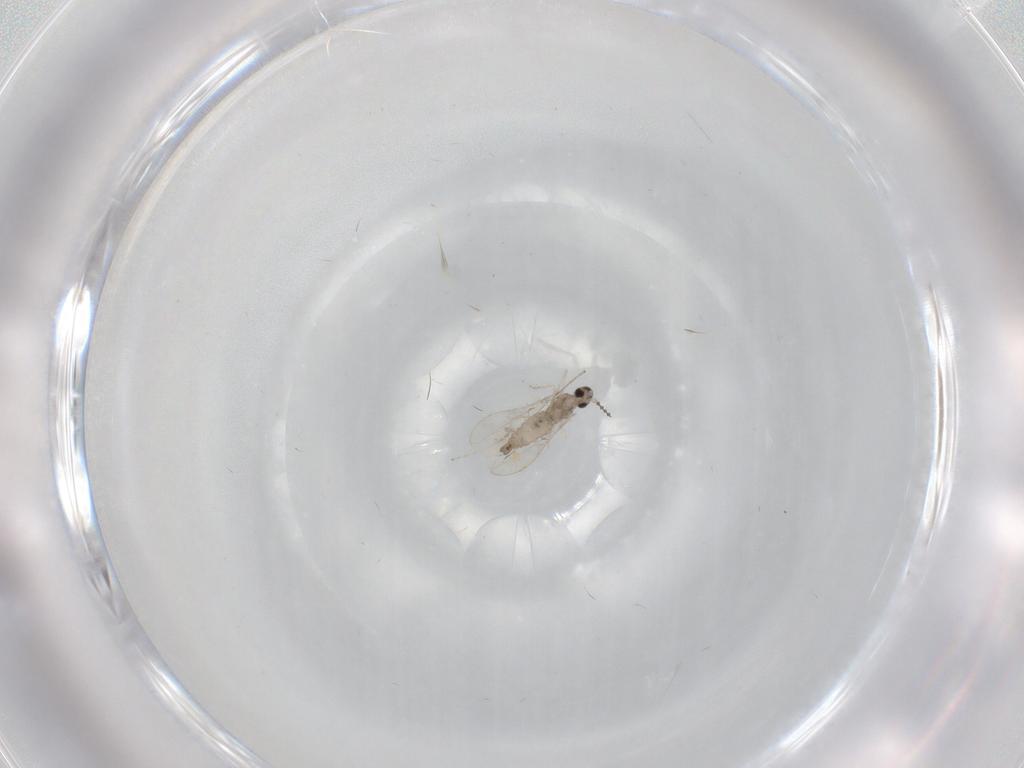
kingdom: Animalia
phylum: Arthropoda
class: Insecta
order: Diptera
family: Cecidomyiidae
